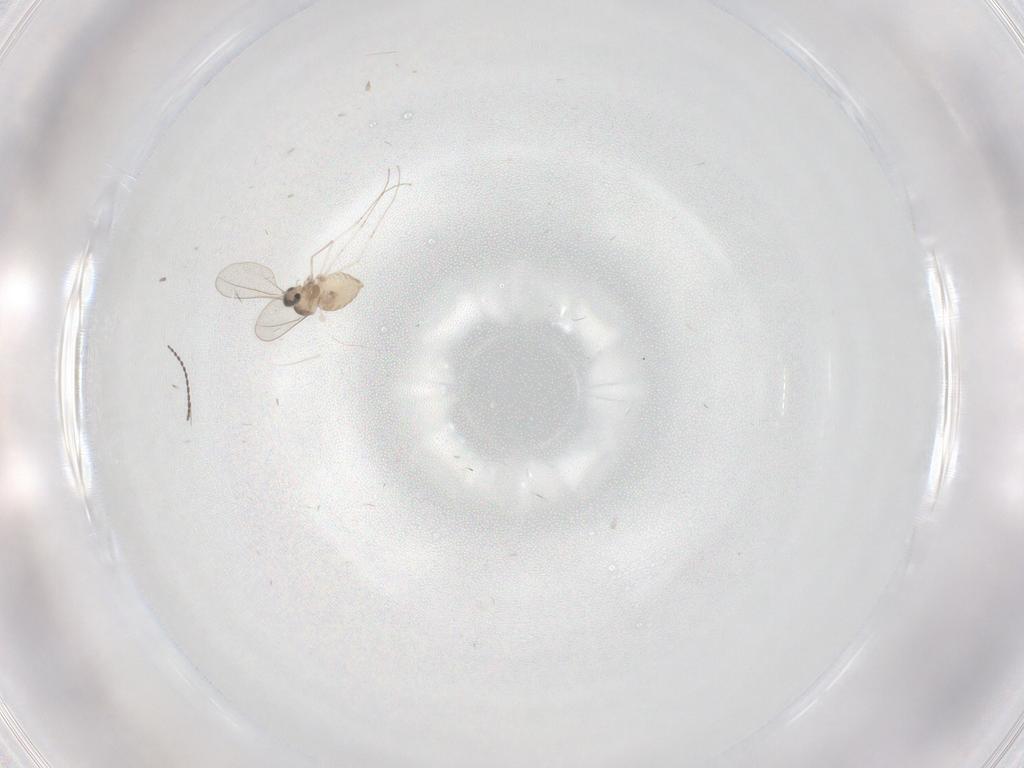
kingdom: Animalia
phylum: Arthropoda
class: Insecta
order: Diptera
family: Cecidomyiidae
